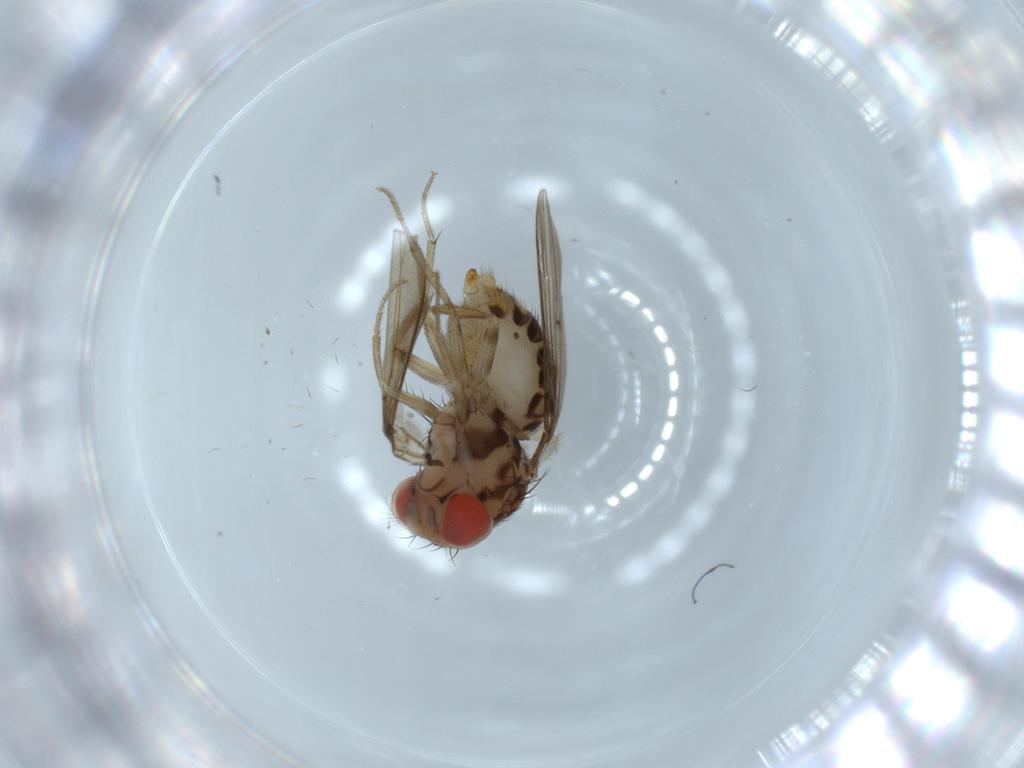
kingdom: Animalia
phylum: Arthropoda
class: Insecta
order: Diptera
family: Drosophilidae
